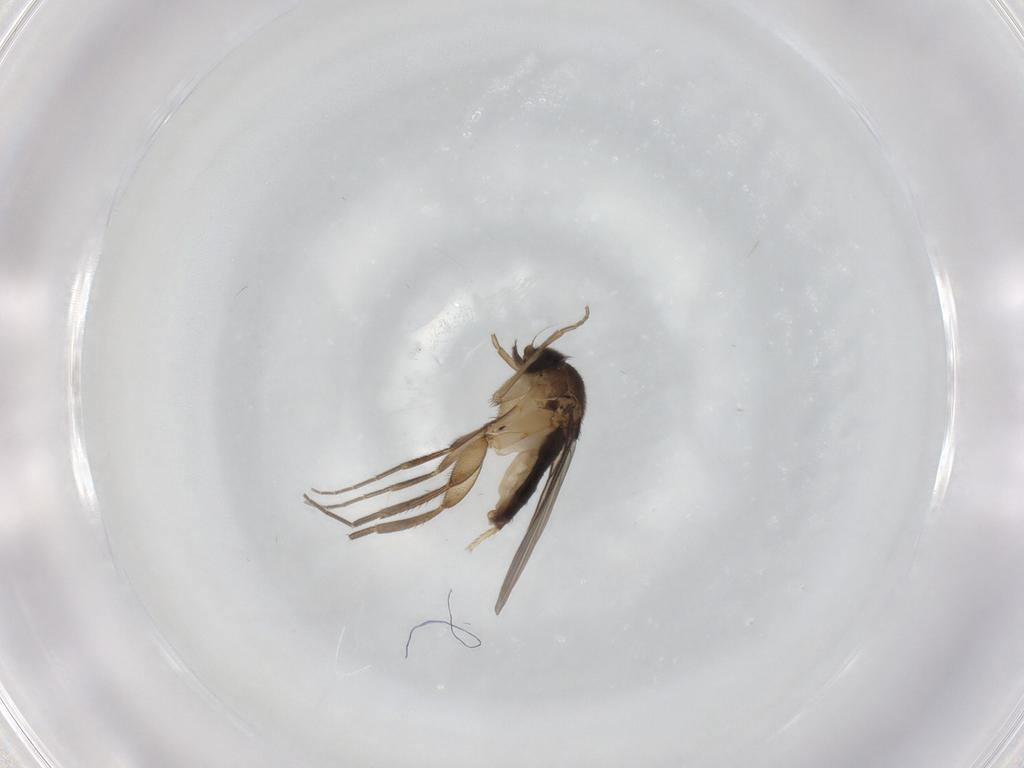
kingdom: Animalia
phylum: Arthropoda
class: Insecta
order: Diptera
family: Phoridae
